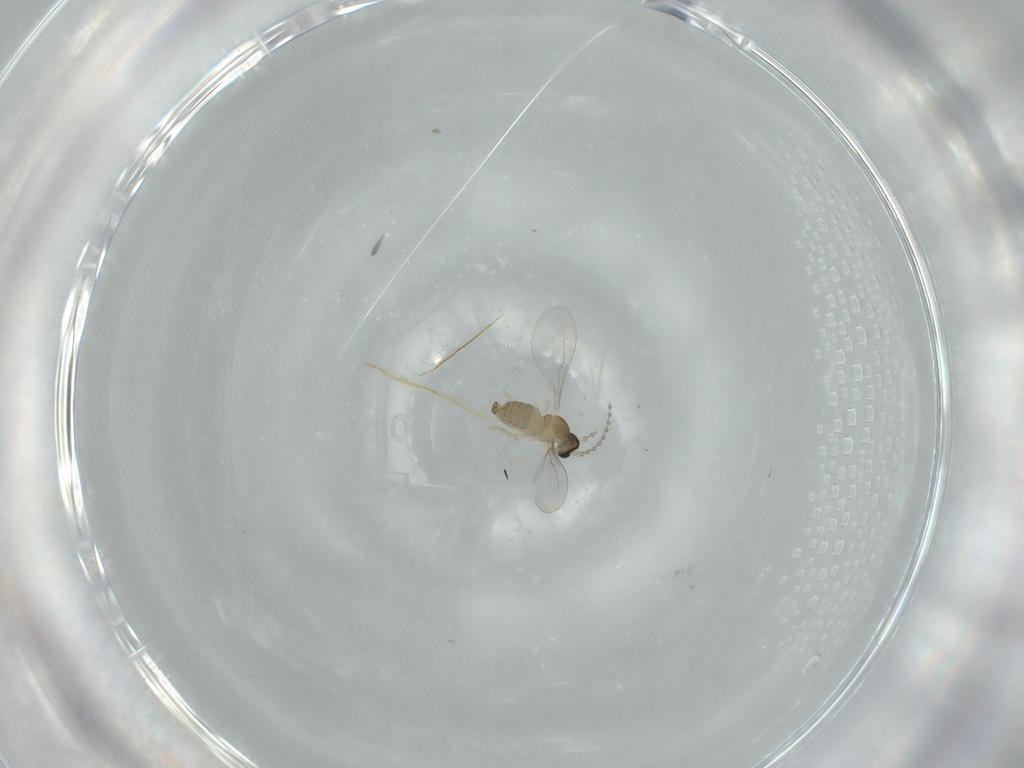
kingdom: Animalia
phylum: Arthropoda
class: Insecta
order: Diptera
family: Cecidomyiidae
